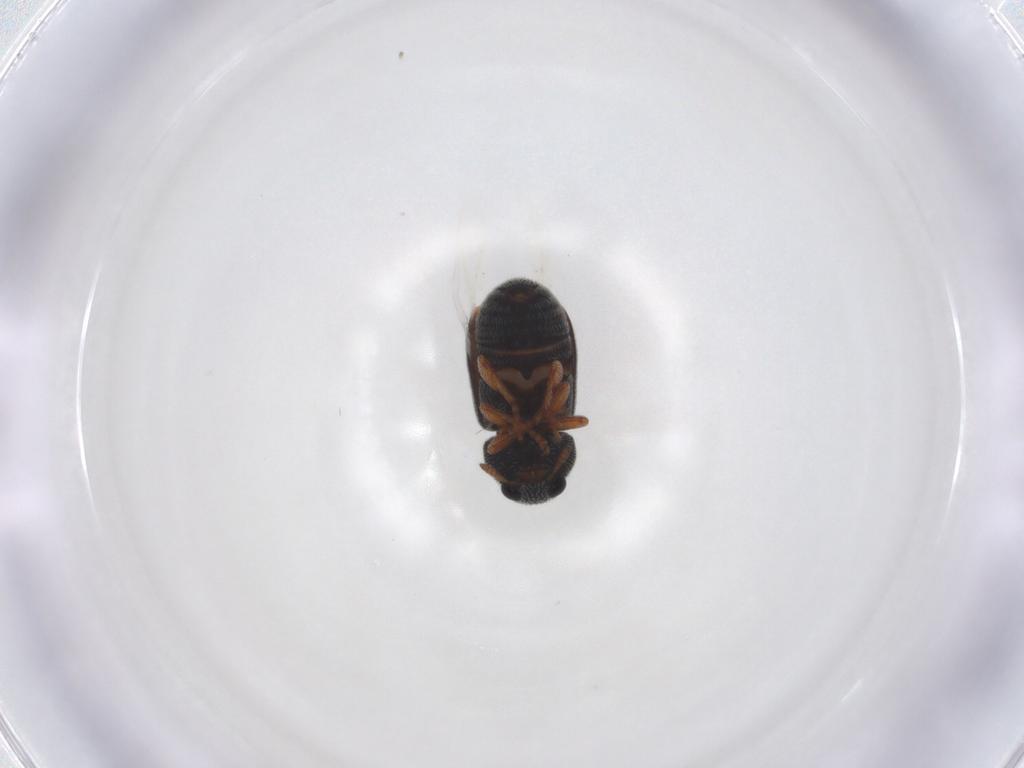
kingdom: Animalia
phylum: Arthropoda
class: Insecta
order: Coleoptera
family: Anthribidae
